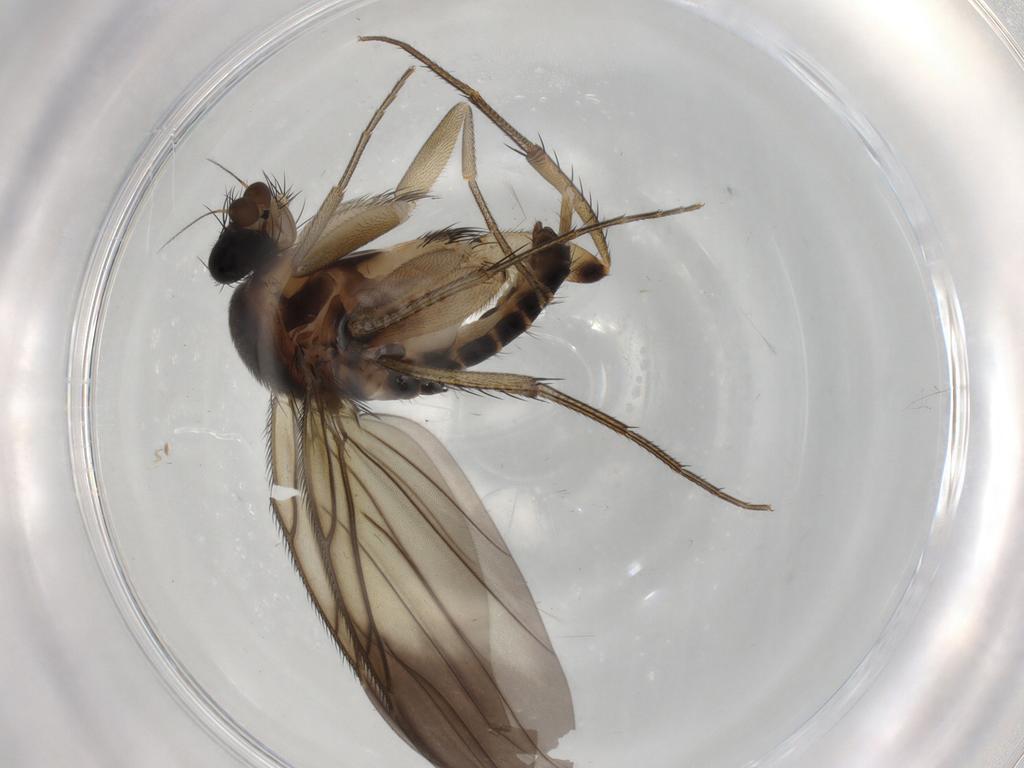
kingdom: Animalia
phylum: Arthropoda
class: Insecta
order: Diptera
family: Phoridae
